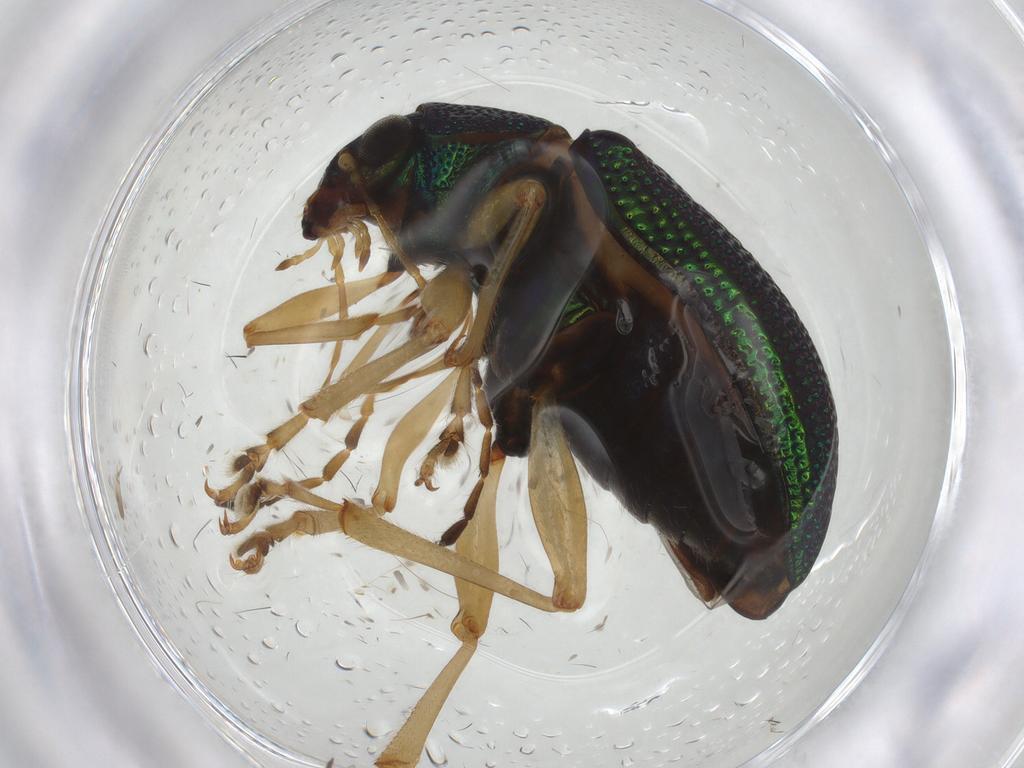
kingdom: Animalia
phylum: Arthropoda
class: Insecta
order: Coleoptera
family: Chrysomelidae
